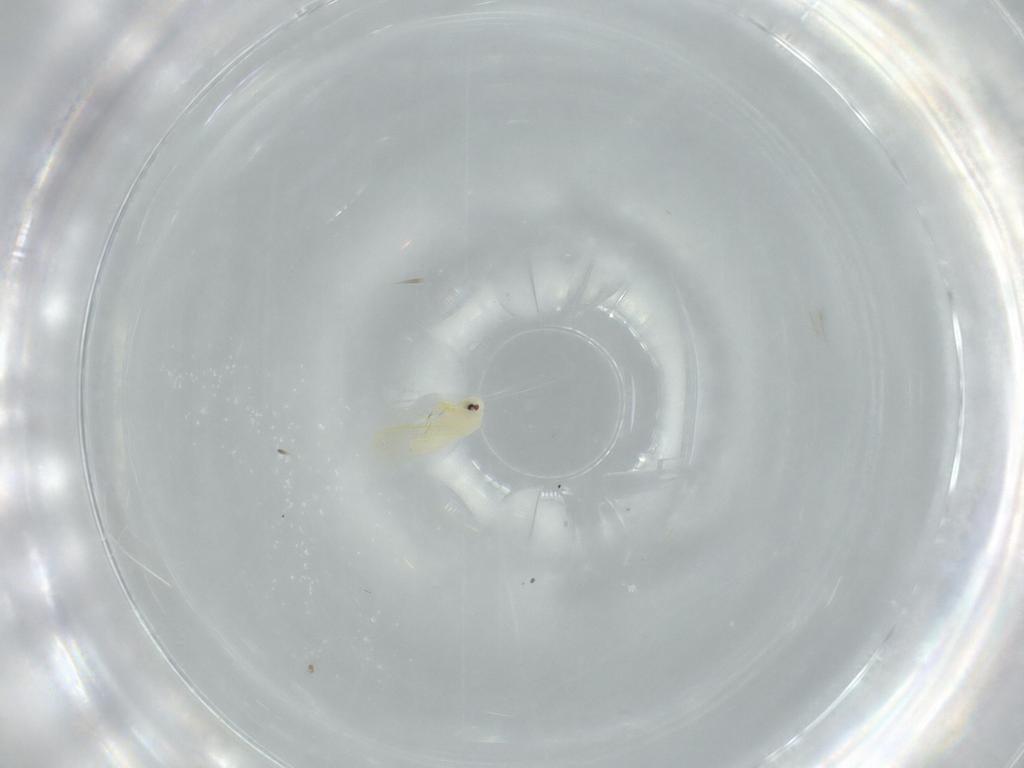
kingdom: Animalia
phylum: Arthropoda
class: Insecta
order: Hemiptera
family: Aleyrodidae
